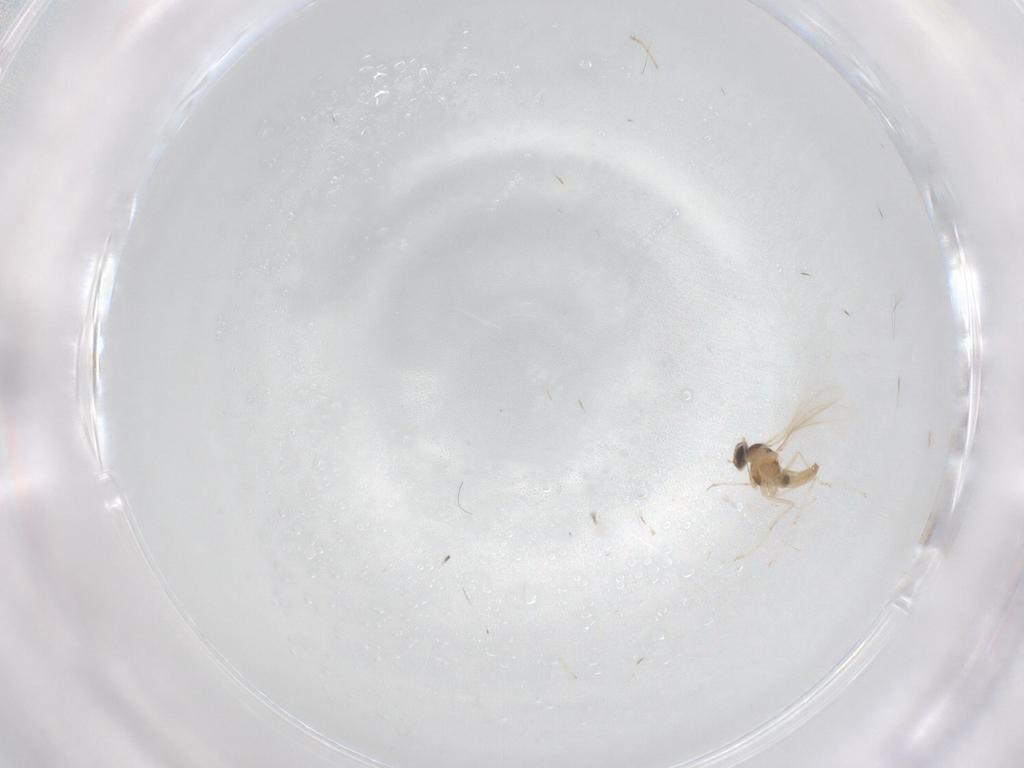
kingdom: Animalia
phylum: Arthropoda
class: Insecta
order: Diptera
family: Cecidomyiidae
